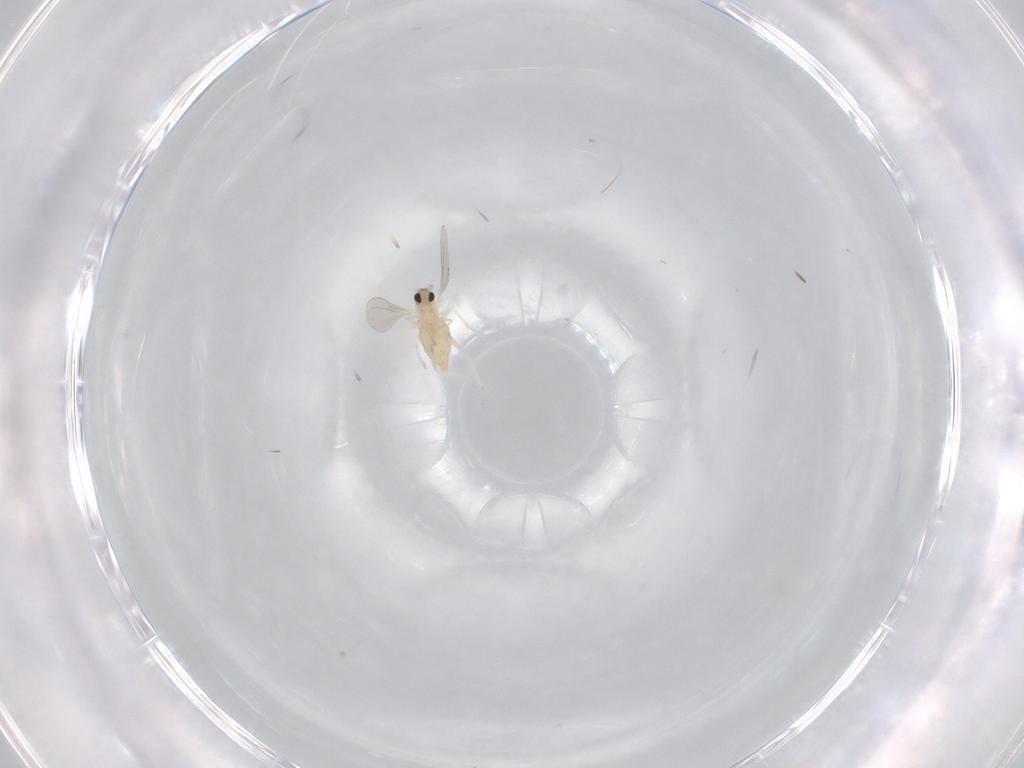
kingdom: Animalia
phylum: Arthropoda
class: Insecta
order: Diptera
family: Cecidomyiidae
